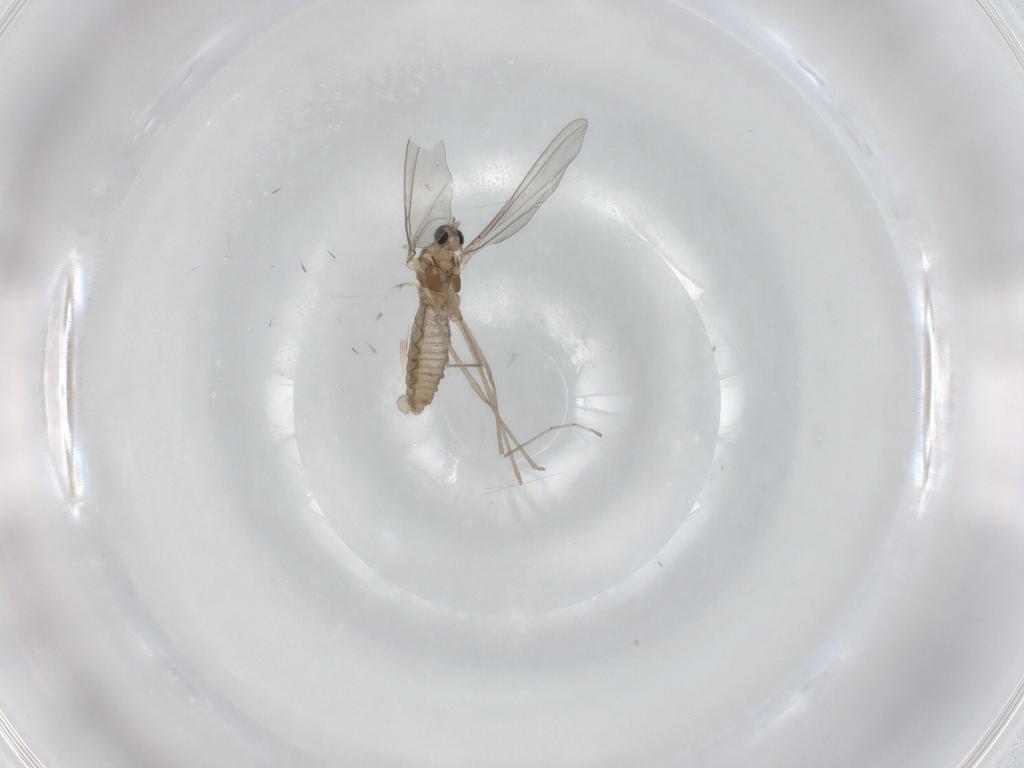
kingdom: Animalia
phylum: Arthropoda
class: Insecta
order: Diptera
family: Cecidomyiidae
